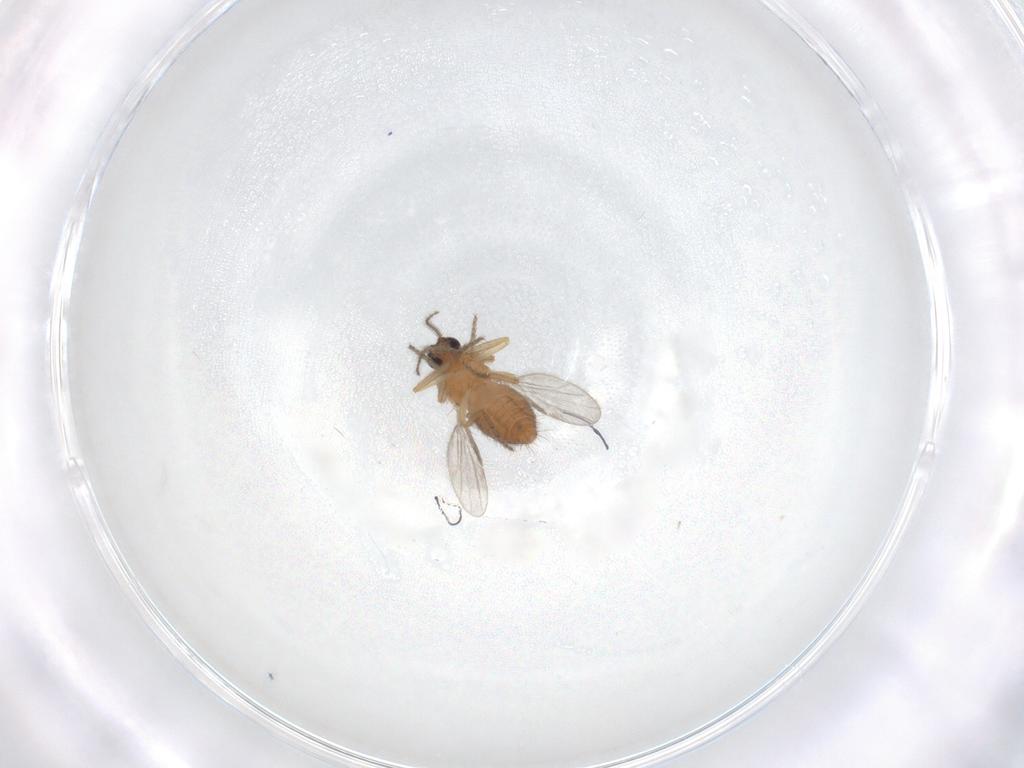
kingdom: Animalia
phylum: Arthropoda
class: Insecta
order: Diptera
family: Ceratopogonidae
